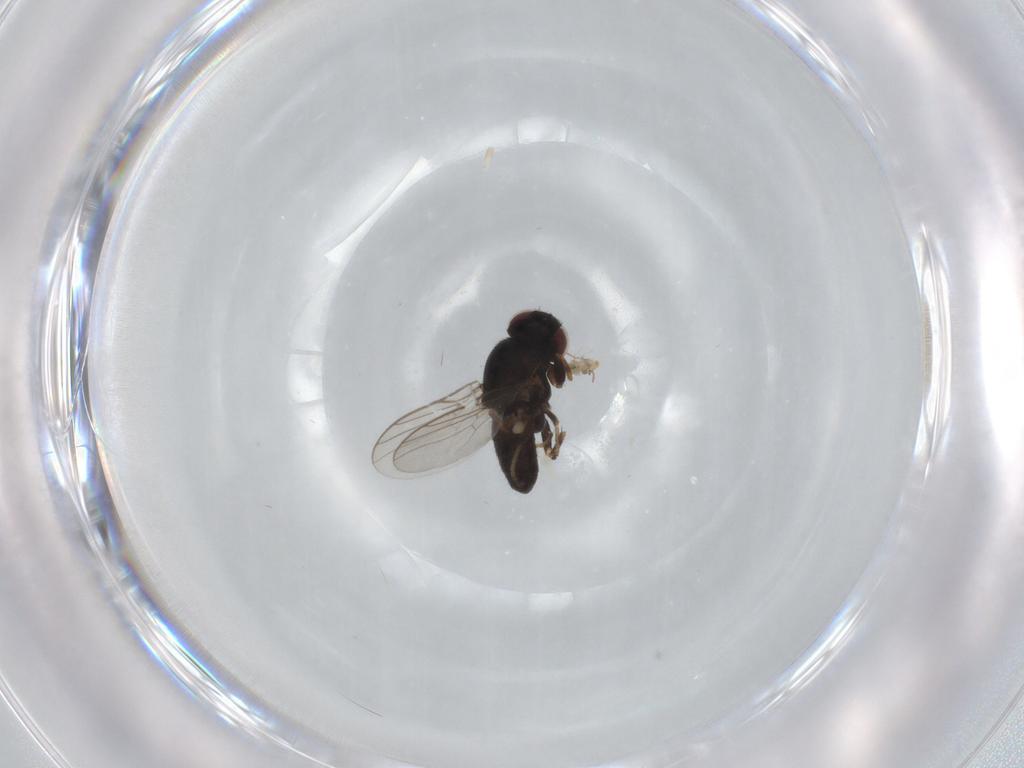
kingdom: Animalia
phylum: Arthropoda
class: Insecta
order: Diptera
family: Chloropidae
